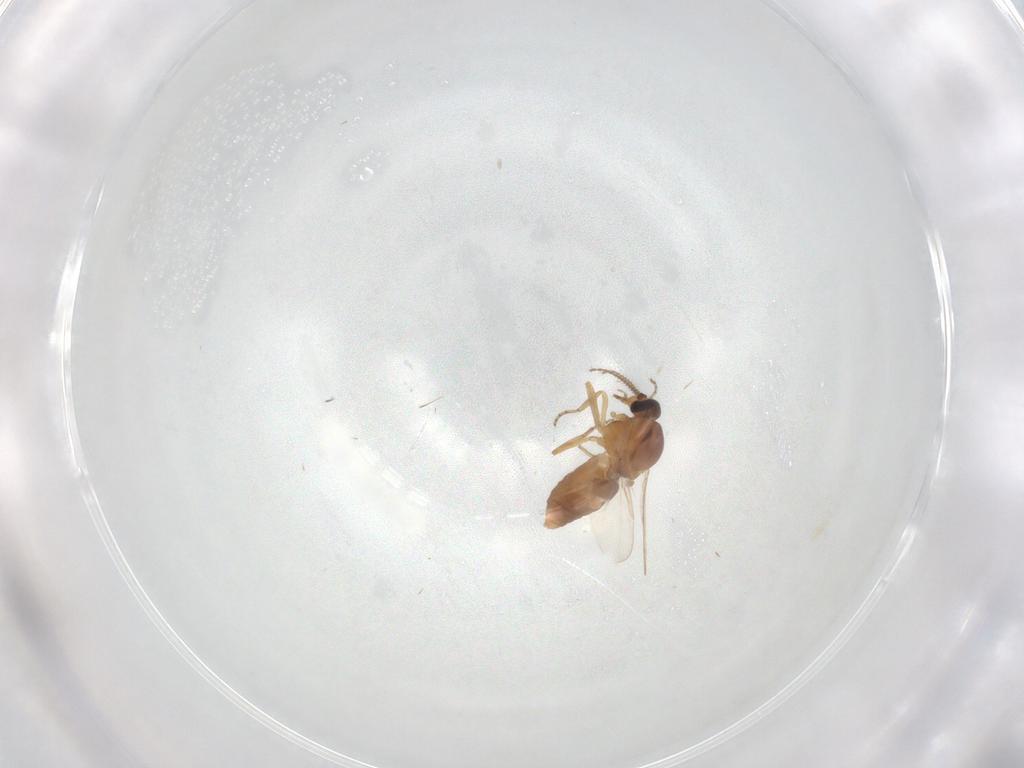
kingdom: Animalia
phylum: Arthropoda
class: Insecta
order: Diptera
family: Ceratopogonidae
